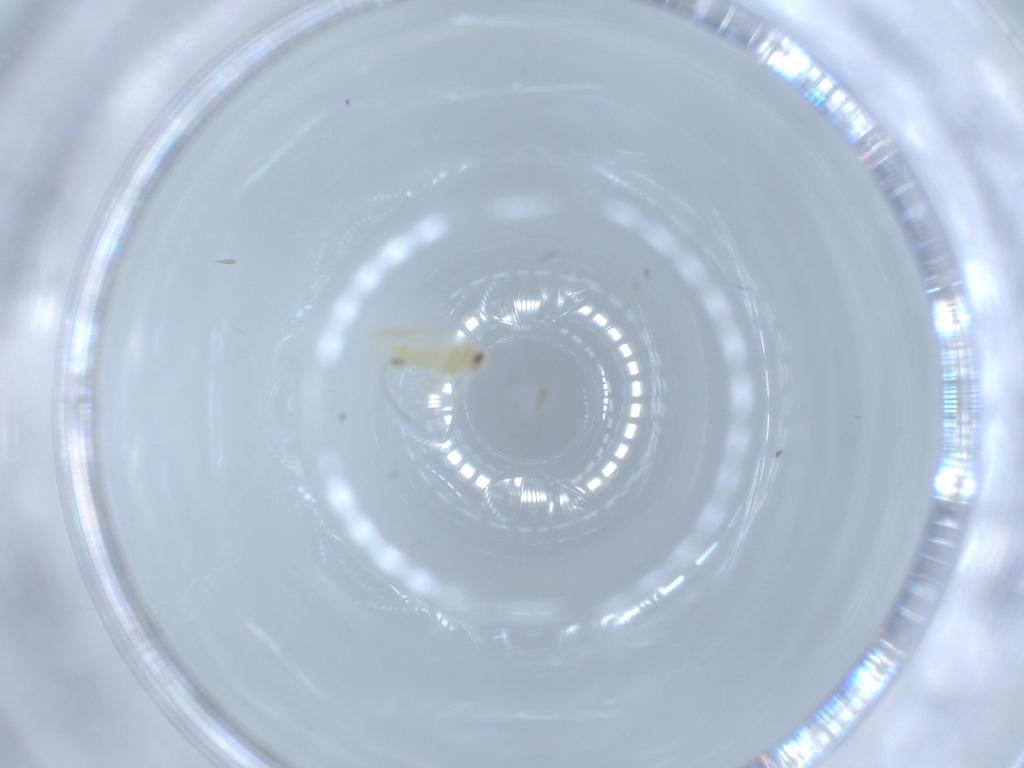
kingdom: Animalia
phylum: Arthropoda
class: Insecta
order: Hemiptera
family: Aleyrodidae
